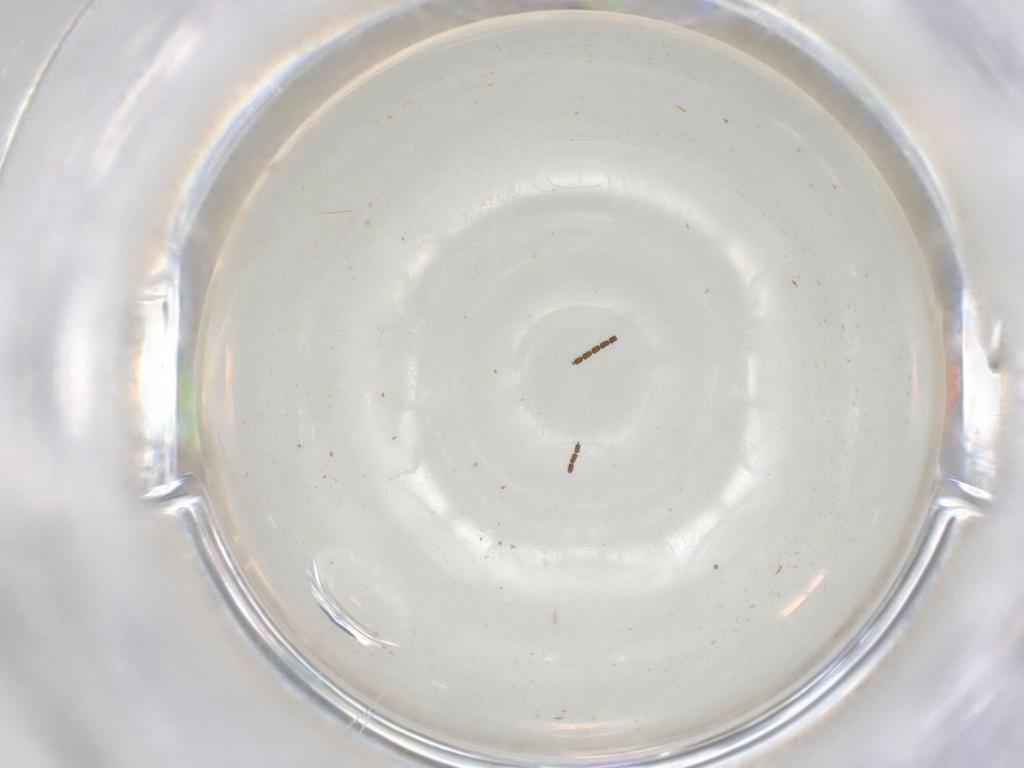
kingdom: Animalia
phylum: Arthropoda
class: Insecta
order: Diptera
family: Sciaridae
